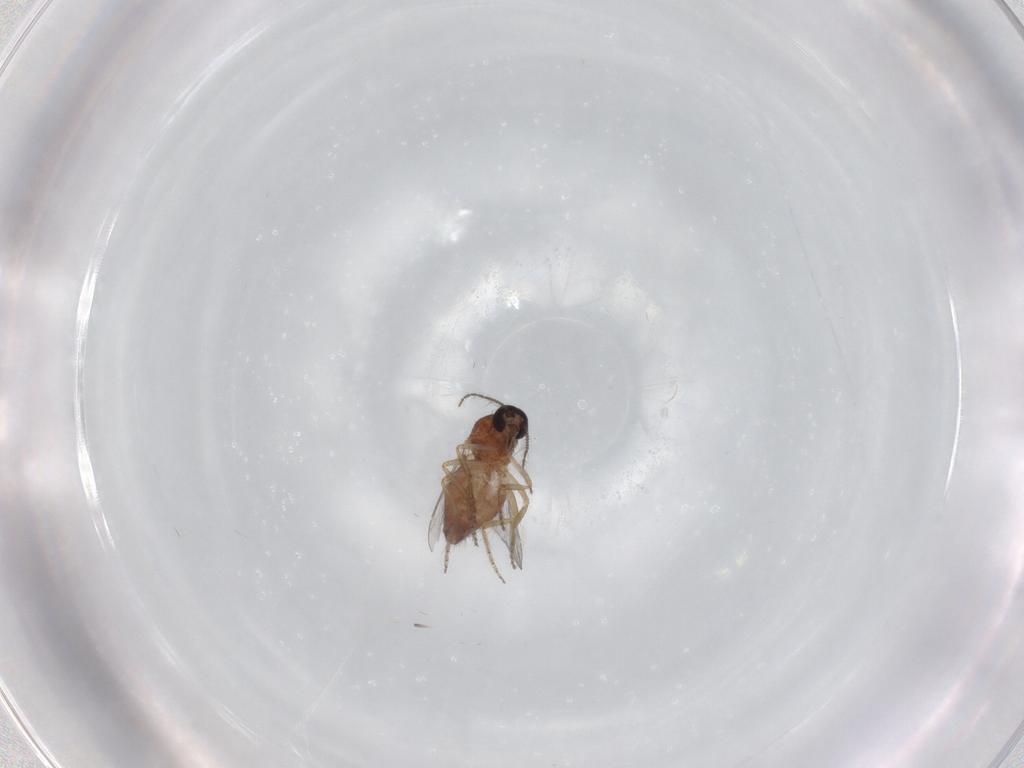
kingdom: Animalia
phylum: Arthropoda
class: Insecta
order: Diptera
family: Ceratopogonidae
